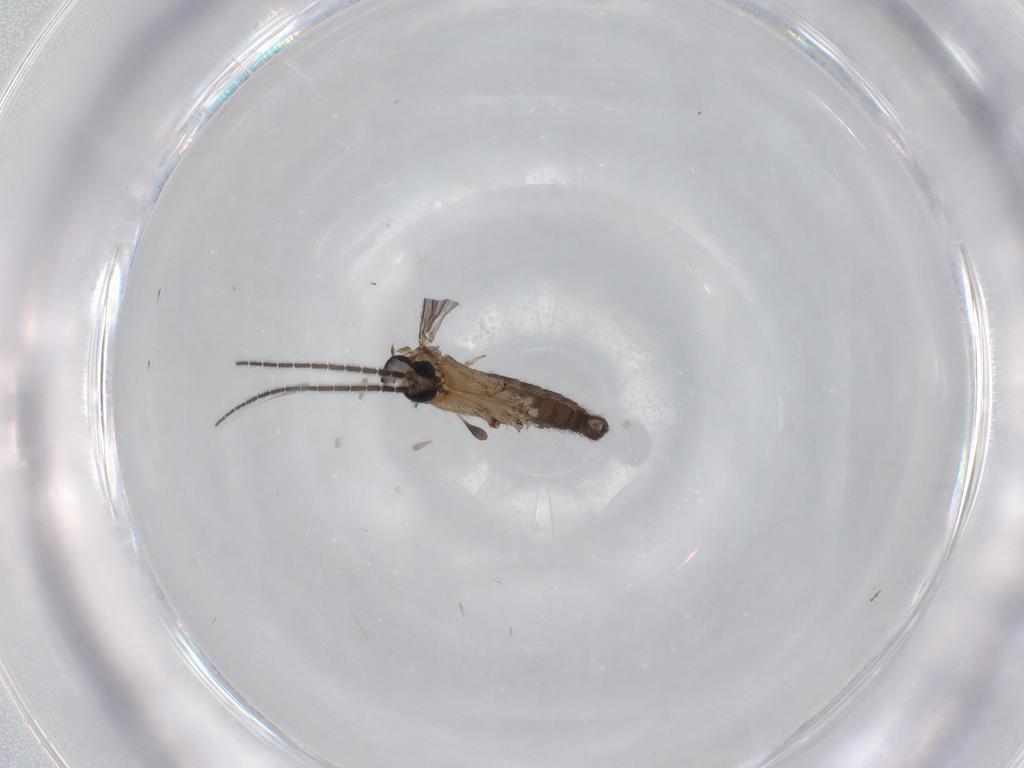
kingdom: Animalia
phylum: Arthropoda
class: Insecta
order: Diptera
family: Sciaridae
